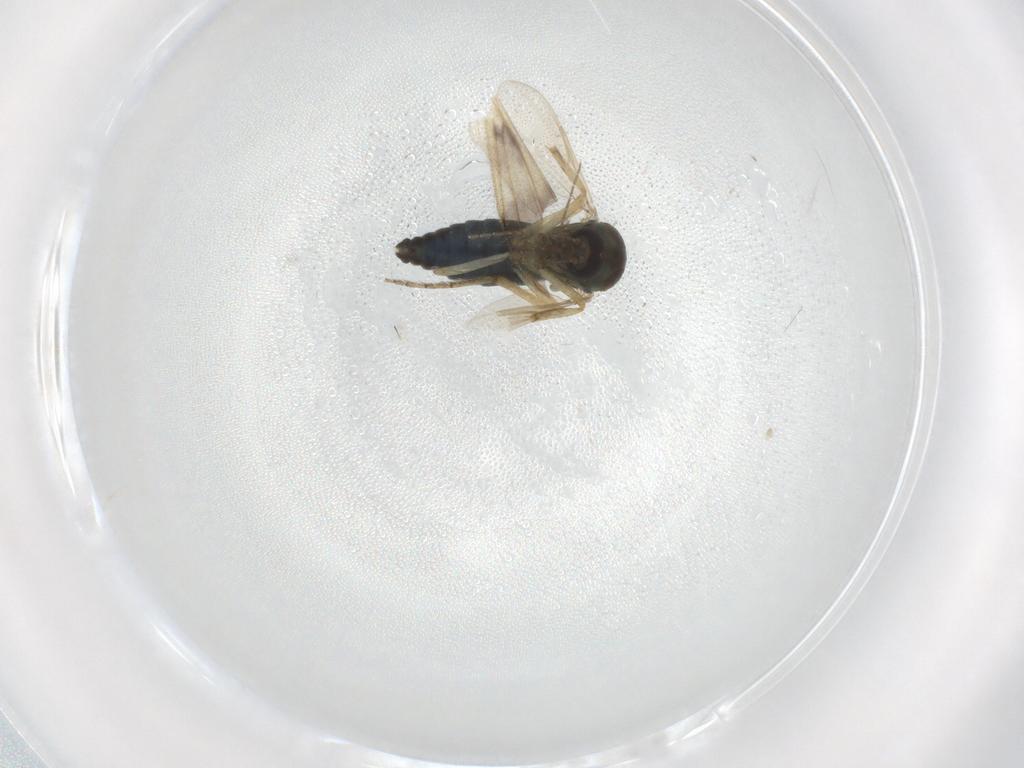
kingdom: Animalia
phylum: Arthropoda
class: Insecta
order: Diptera
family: Ceratopogonidae
